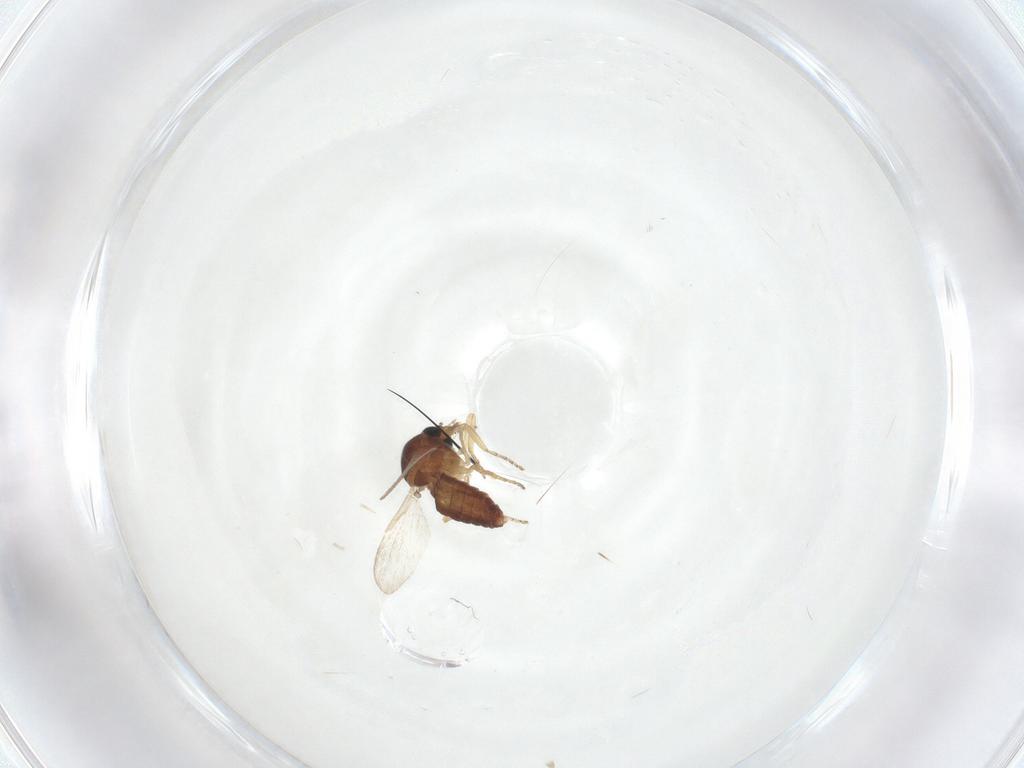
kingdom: Animalia
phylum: Arthropoda
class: Insecta
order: Diptera
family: Ceratopogonidae
